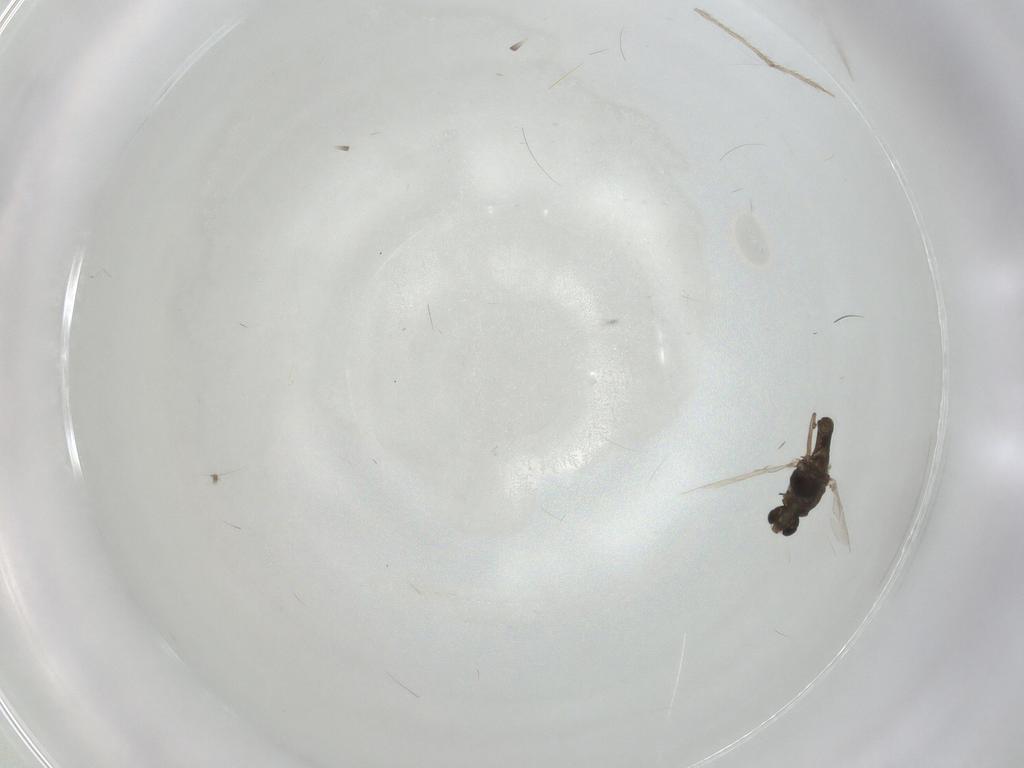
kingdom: Animalia
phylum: Arthropoda
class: Insecta
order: Diptera
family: Chironomidae
